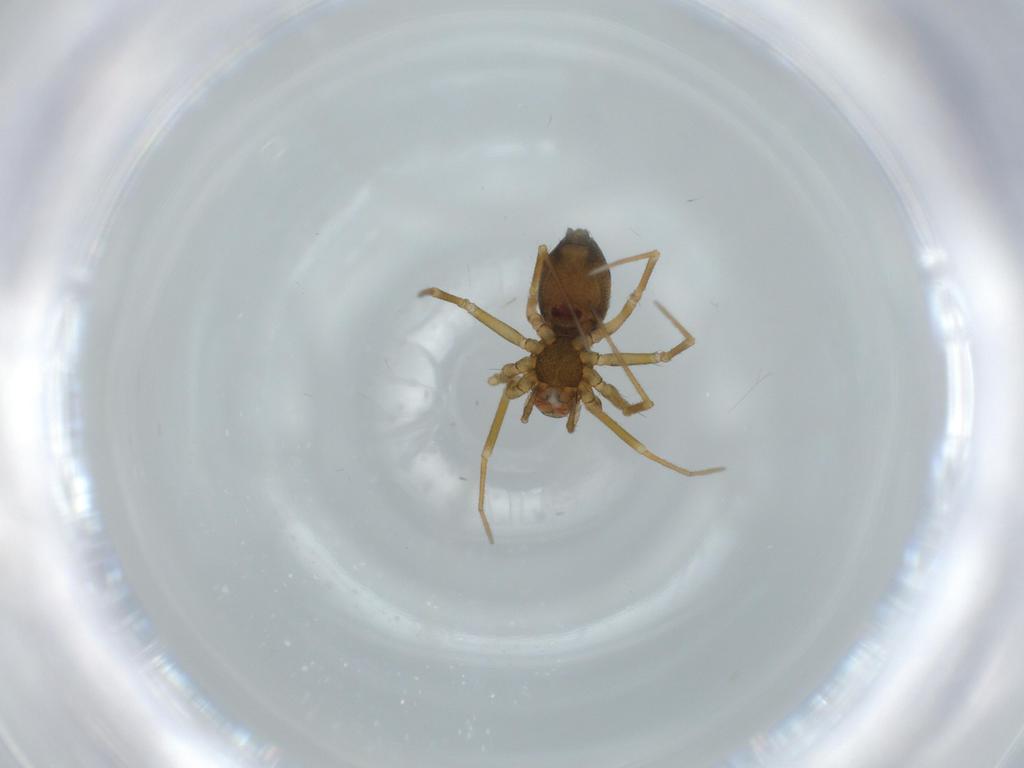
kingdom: Animalia
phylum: Arthropoda
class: Arachnida
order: Araneae
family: Linyphiidae
